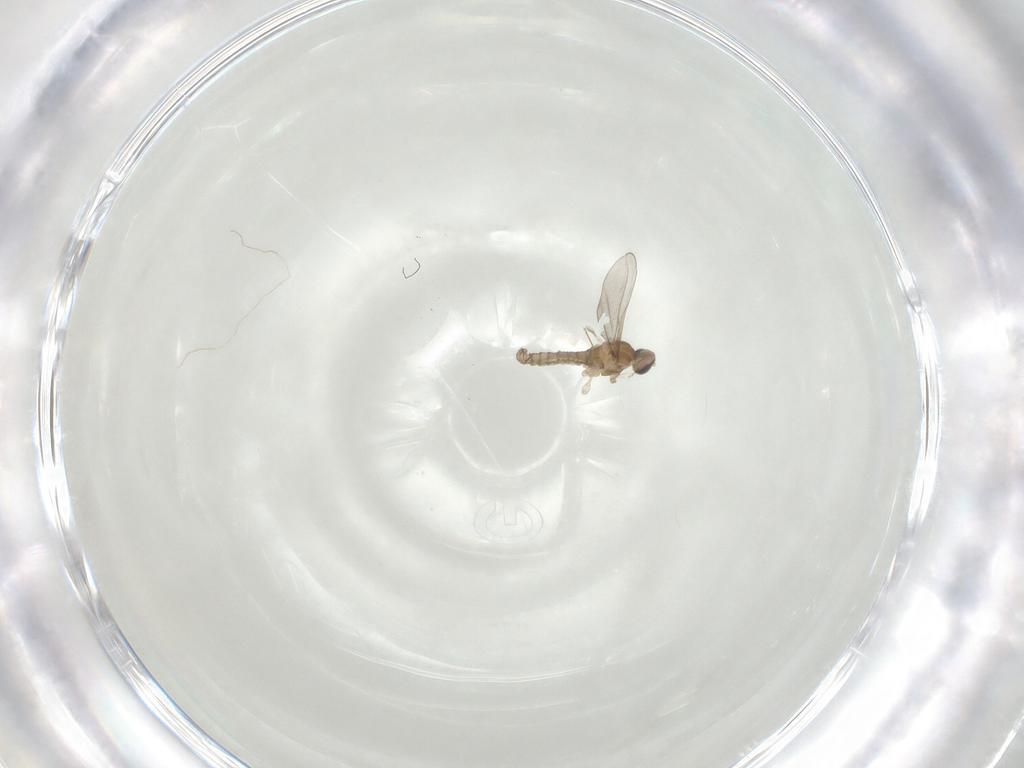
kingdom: Animalia
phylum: Arthropoda
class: Insecta
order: Diptera
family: Cecidomyiidae
